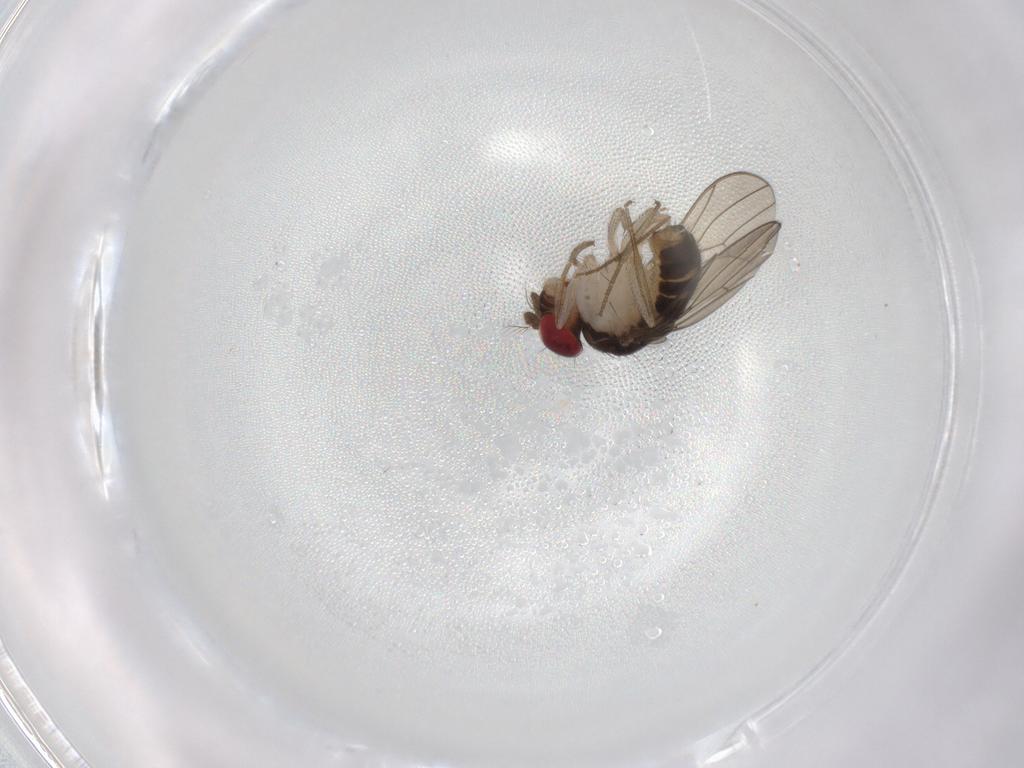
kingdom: Animalia
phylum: Arthropoda
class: Insecta
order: Diptera
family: Drosophilidae
